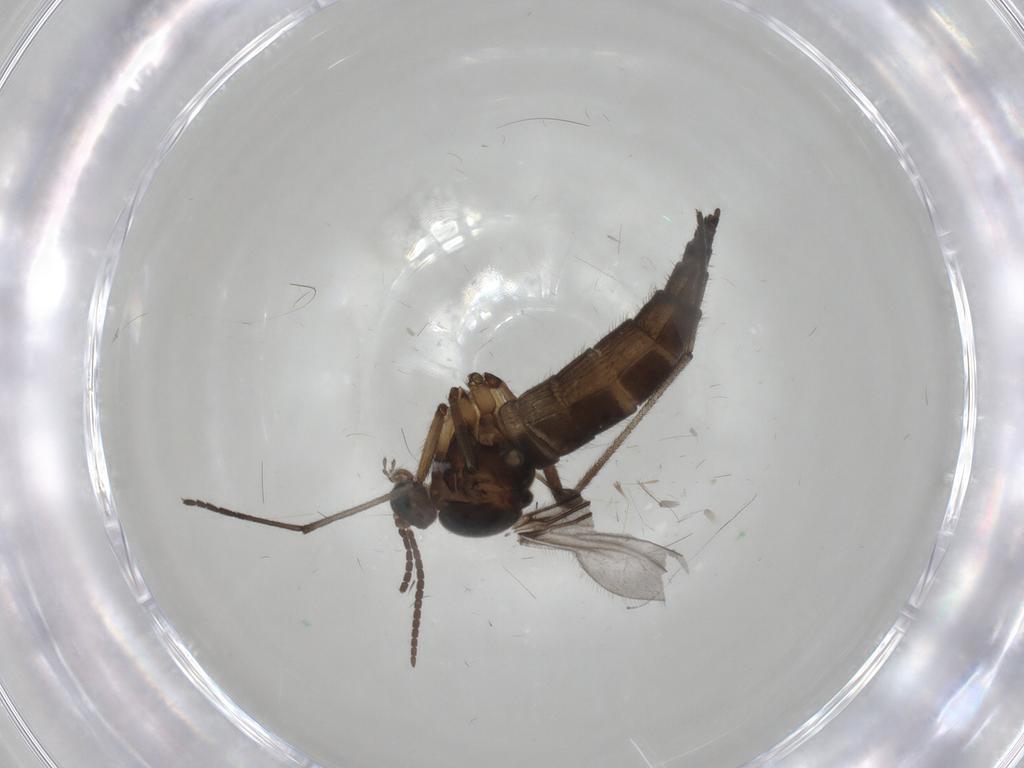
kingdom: Animalia
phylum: Arthropoda
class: Insecta
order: Diptera
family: Sciaridae
